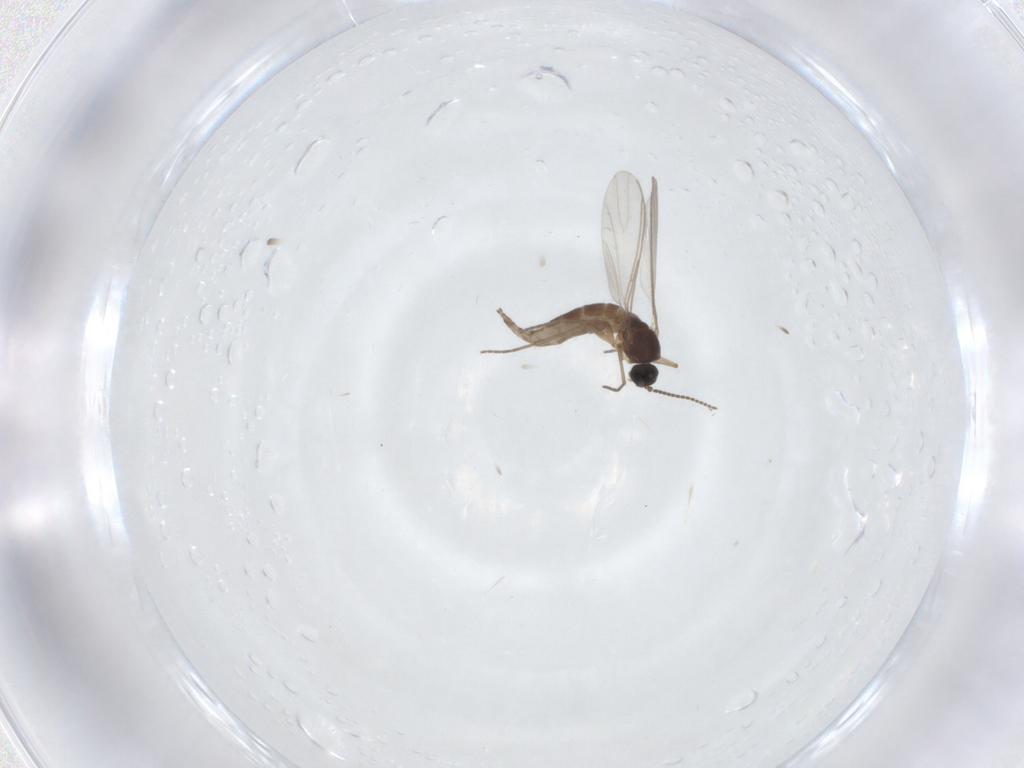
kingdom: Animalia
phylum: Arthropoda
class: Insecta
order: Diptera
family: Sciaridae
